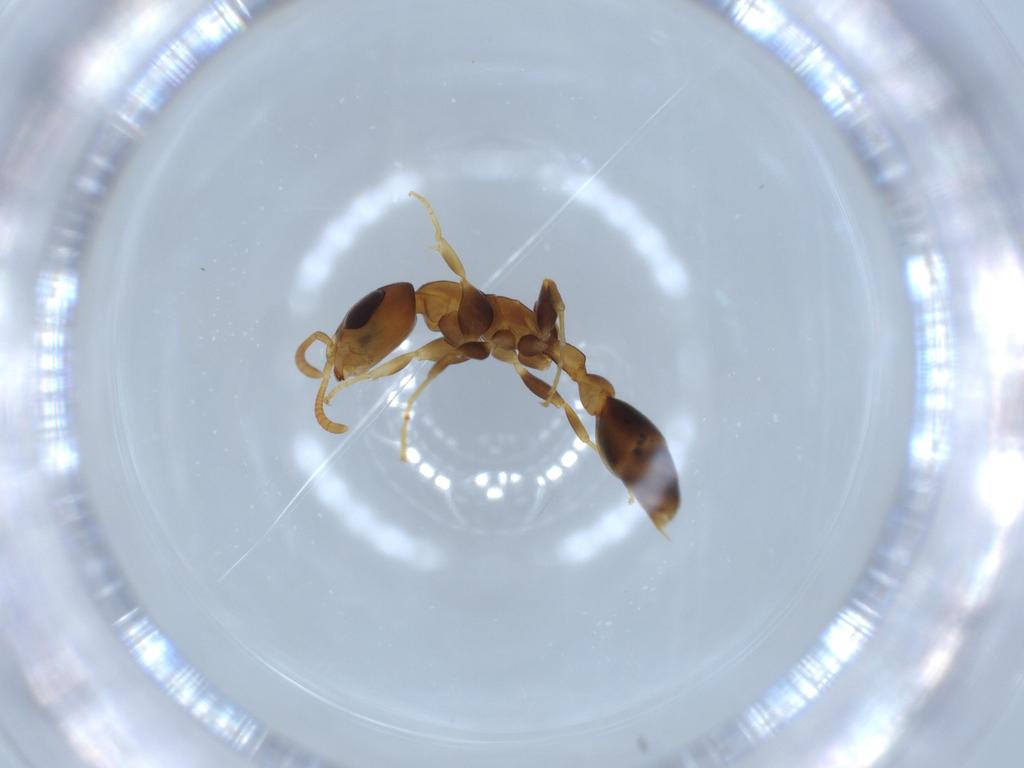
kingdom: Animalia
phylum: Arthropoda
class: Insecta
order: Hymenoptera
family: Formicidae
